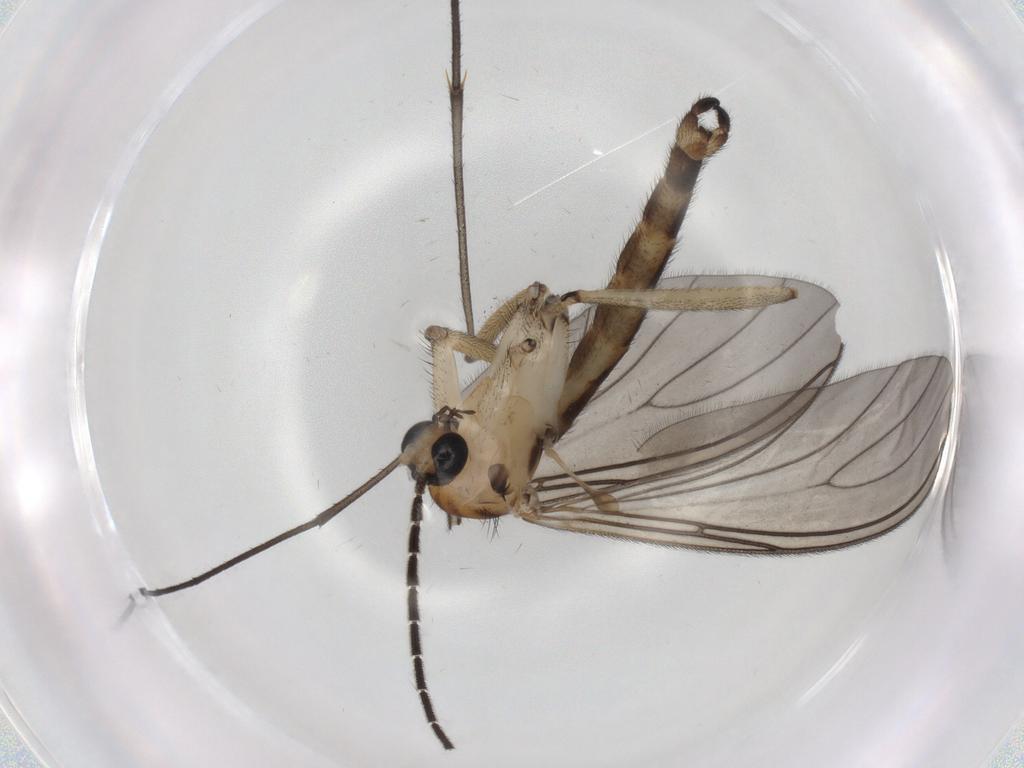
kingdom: Animalia
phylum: Arthropoda
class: Insecta
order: Diptera
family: Sciaridae
